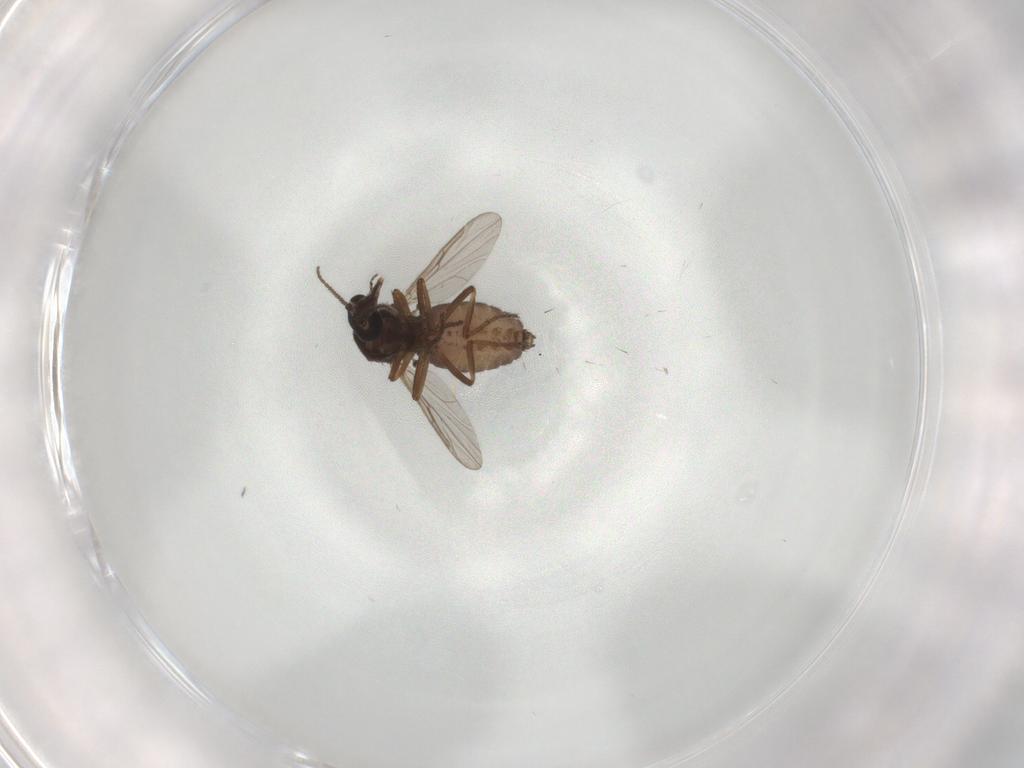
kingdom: Animalia
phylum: Arthropoda
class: Insecta
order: Diptera
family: Ceratopogonidae
